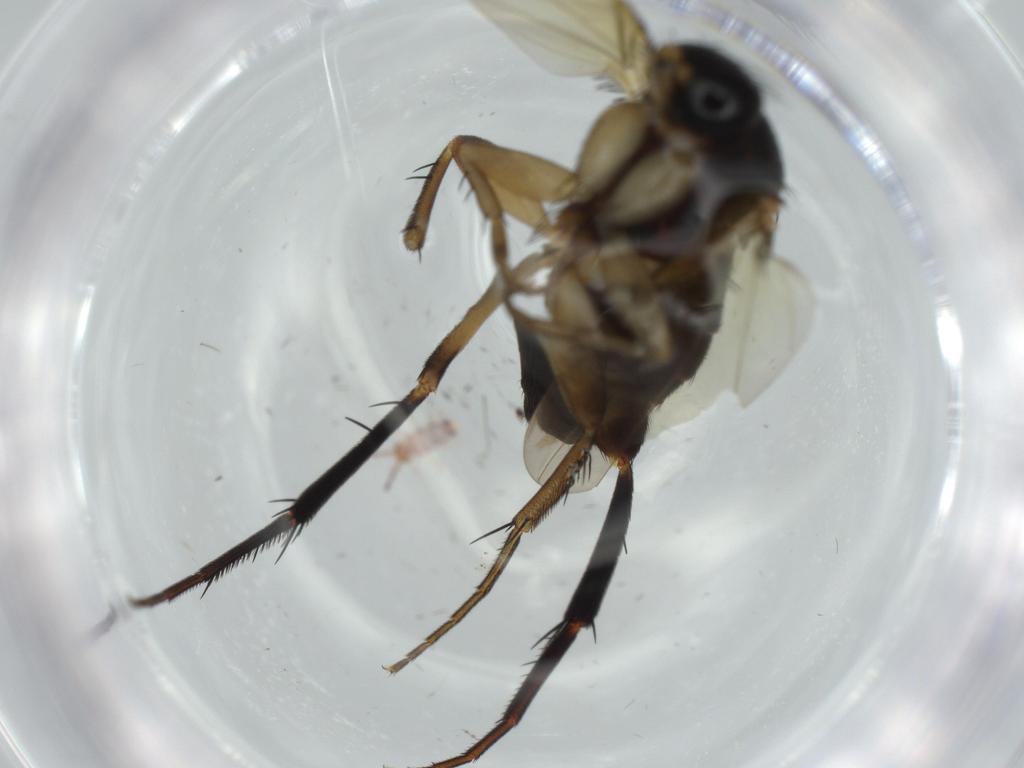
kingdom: Animalia
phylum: Arthropoda
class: Insecta
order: Diptera
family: Phoridae
